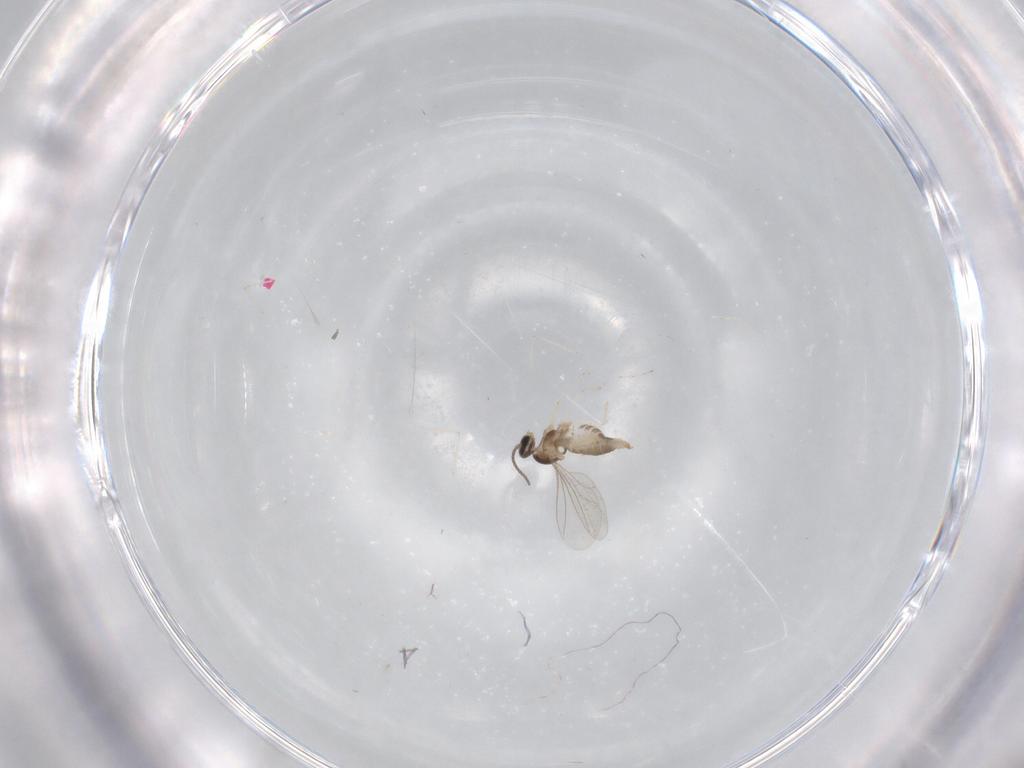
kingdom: Animalia
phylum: Arthropoda
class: Insecta
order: Diptera
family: Cecidomyiidae
